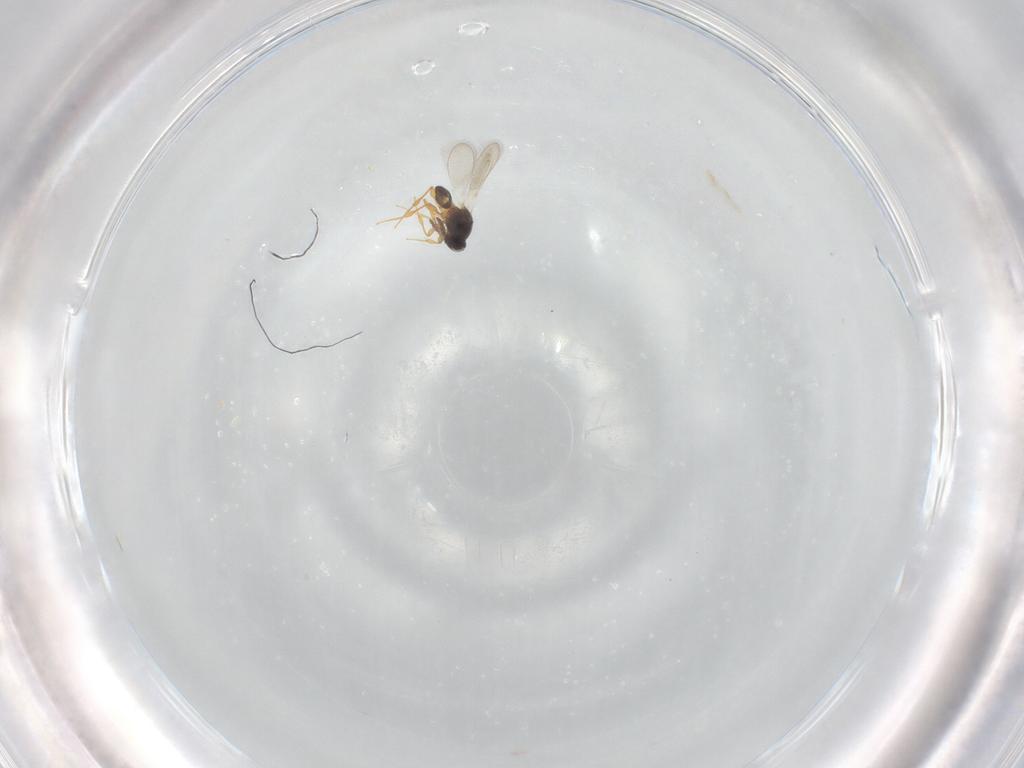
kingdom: Animalia
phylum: Arthropoda
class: Insecta
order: Hymenoptera
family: Platygastridae
